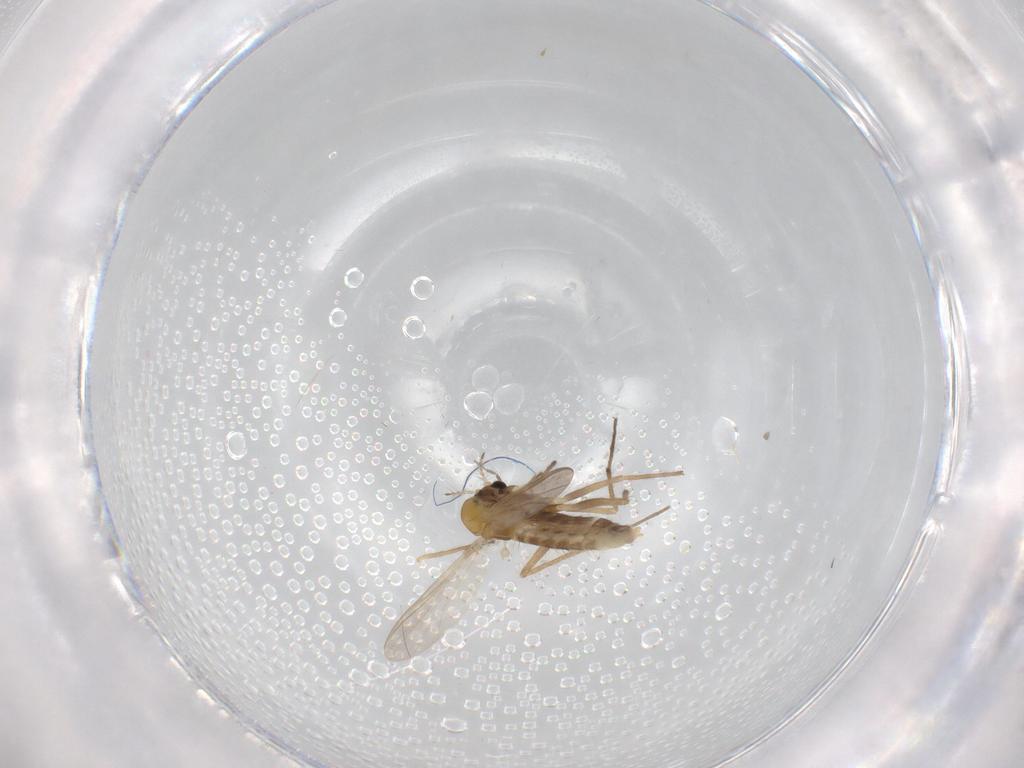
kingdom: Animalia
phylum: Arthropoda
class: Insecta
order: Diptera
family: Chironomidae
